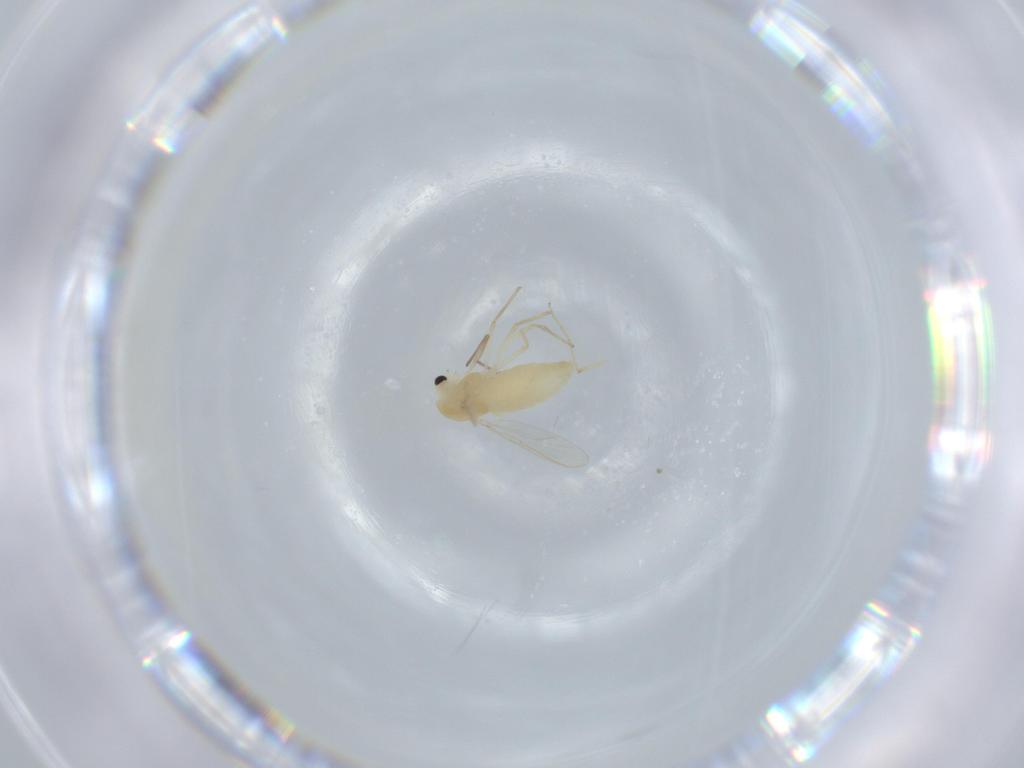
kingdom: Animalia
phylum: Arthropoda
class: Insecta
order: Diptera
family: Chironomidae
